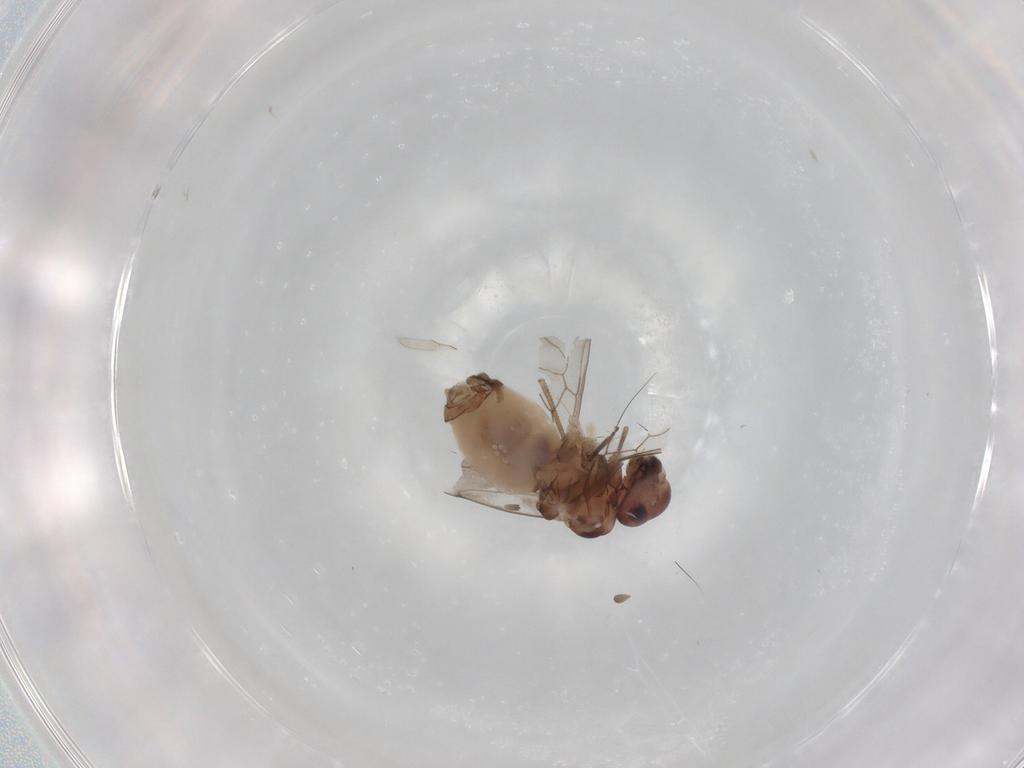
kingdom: Animalia
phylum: Arthropoda
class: Insecta
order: Psocodea
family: Peripsocidae
